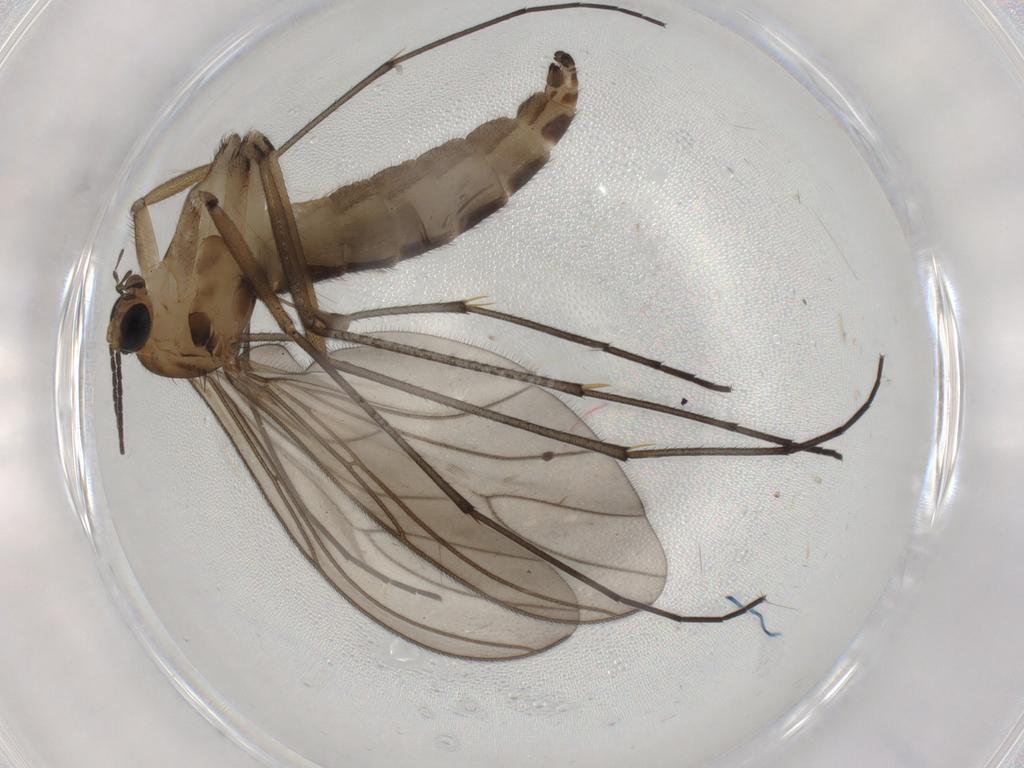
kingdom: Animalia
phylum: Arthropoda
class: Insecta
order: Diptera
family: Sciaridae
